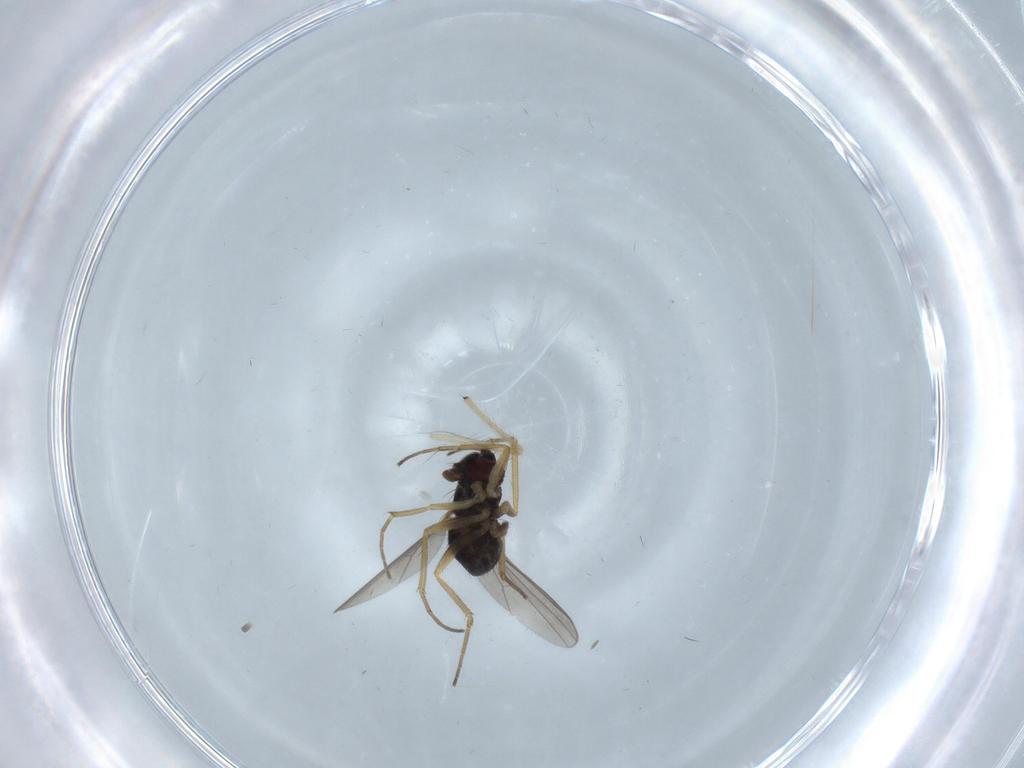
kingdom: Animalia
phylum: Arthropoda
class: Insecta
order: Diptera
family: Dolichopodidae
